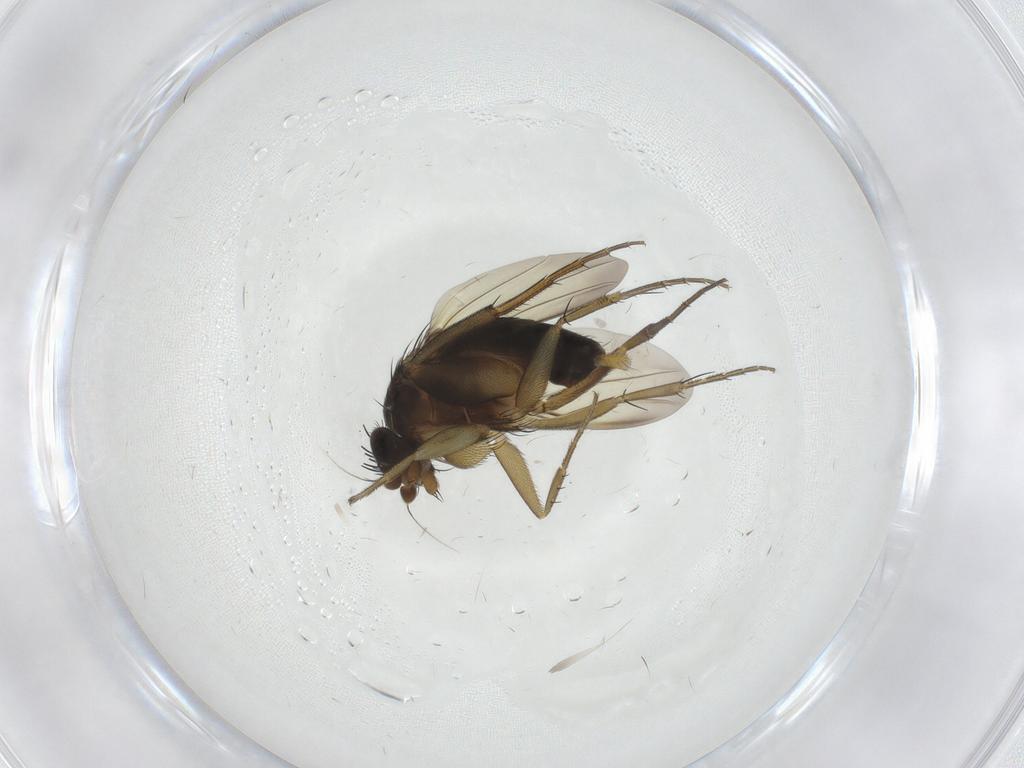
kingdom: Animalia
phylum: Arthropoda
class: Insecta
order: Diptera
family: Phoridae
